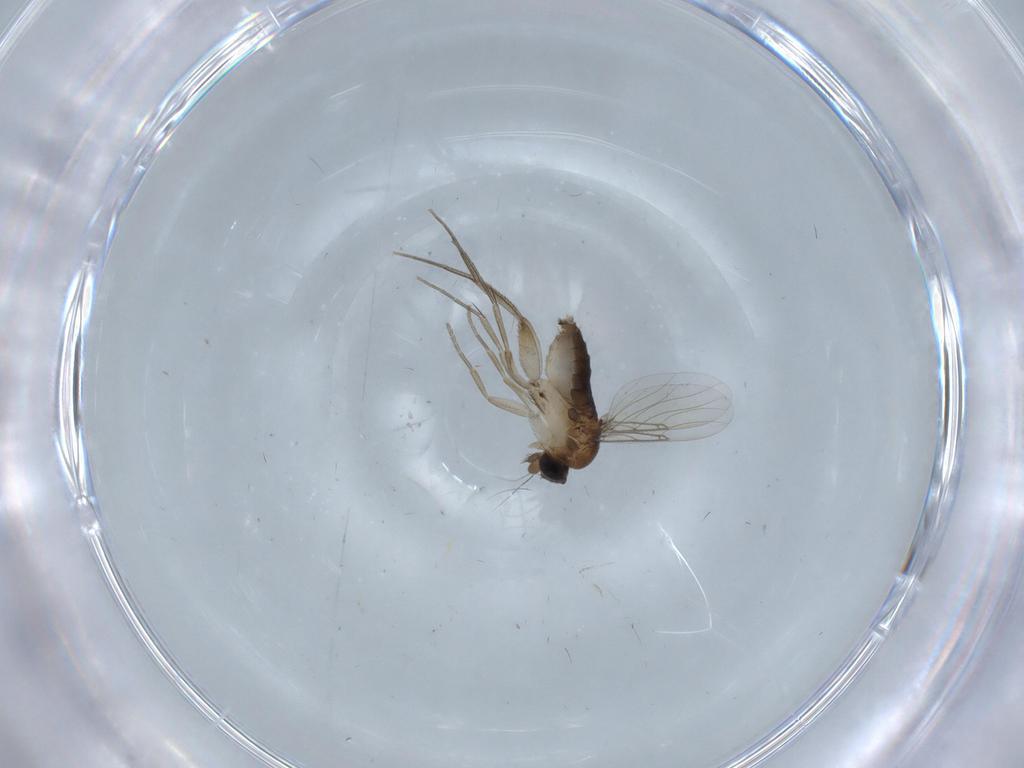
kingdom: Animalia
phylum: Arthropoda
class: Insecta
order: Diptera
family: Phoridae
